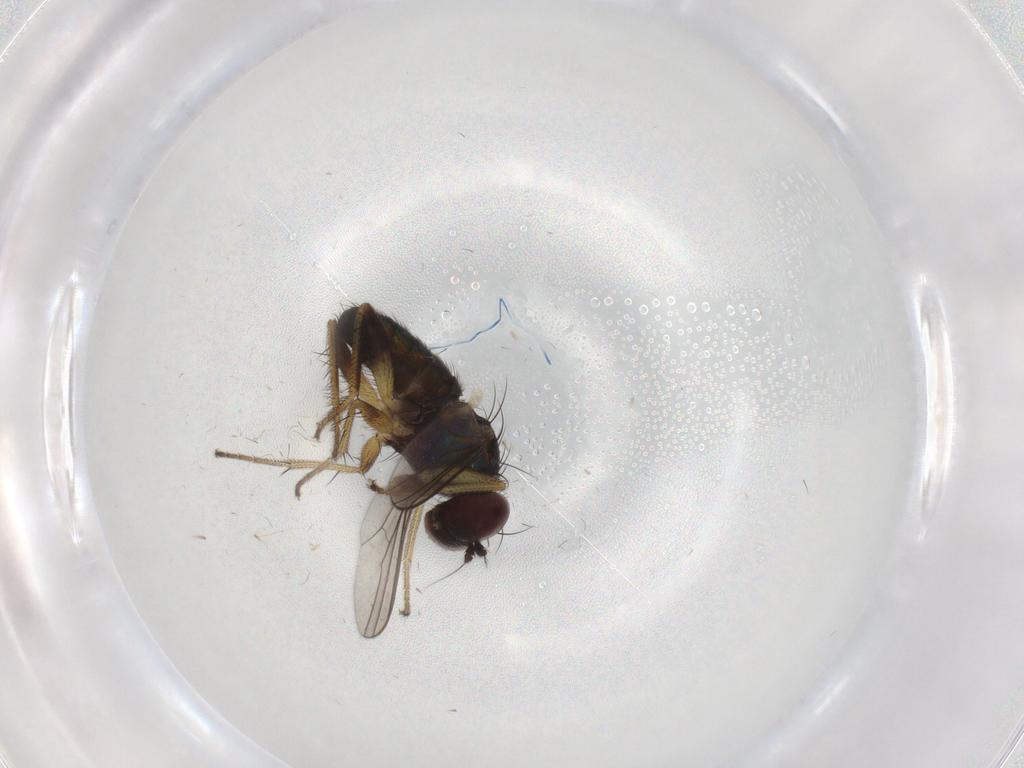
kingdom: Animalia
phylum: Arthropoda
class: Insecta
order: Diptera
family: Dolichopodidae
